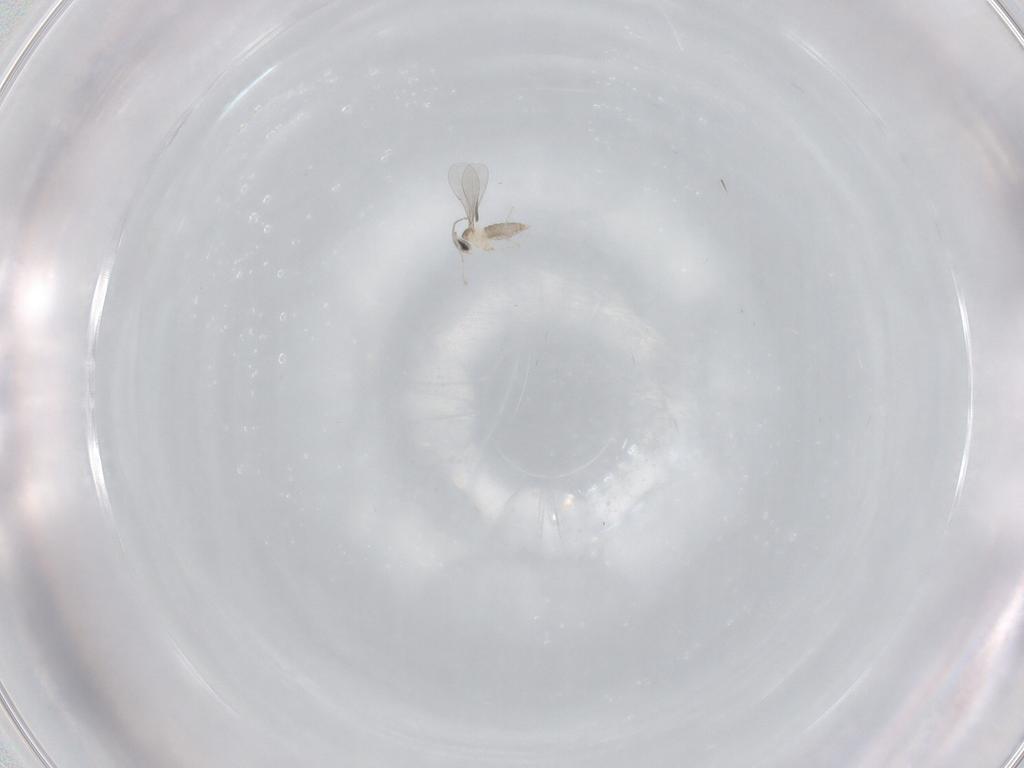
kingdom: Animalia
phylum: Arthropoda
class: Insecta
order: Diptera
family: Cecidomyiidae
